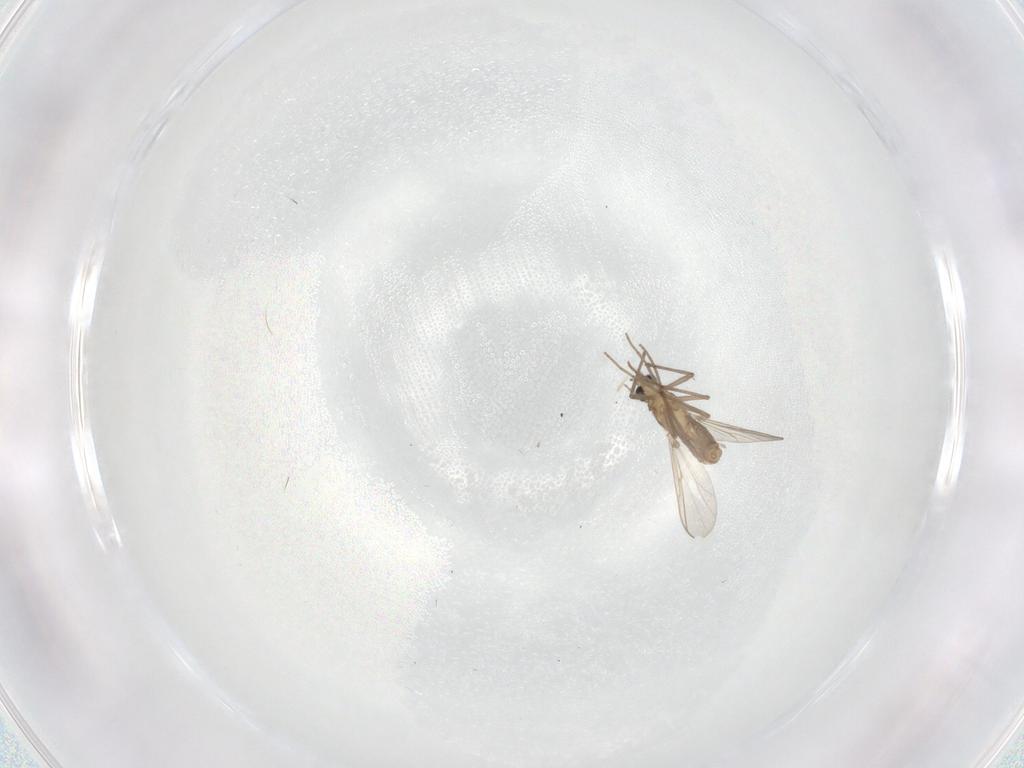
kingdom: Animalia
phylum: Arthropoda
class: Insecta
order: Diptera
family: Chironomidae
